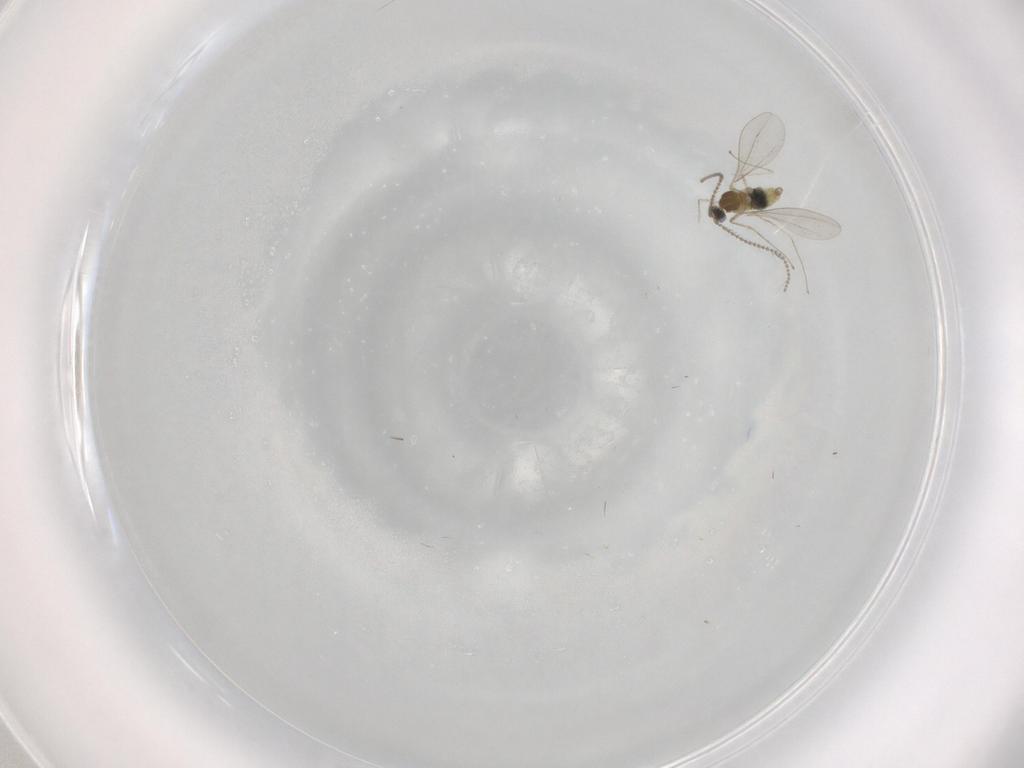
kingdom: Animalia
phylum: Arthropoda
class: Insecta
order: Diptera
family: Cecidomyiidae
